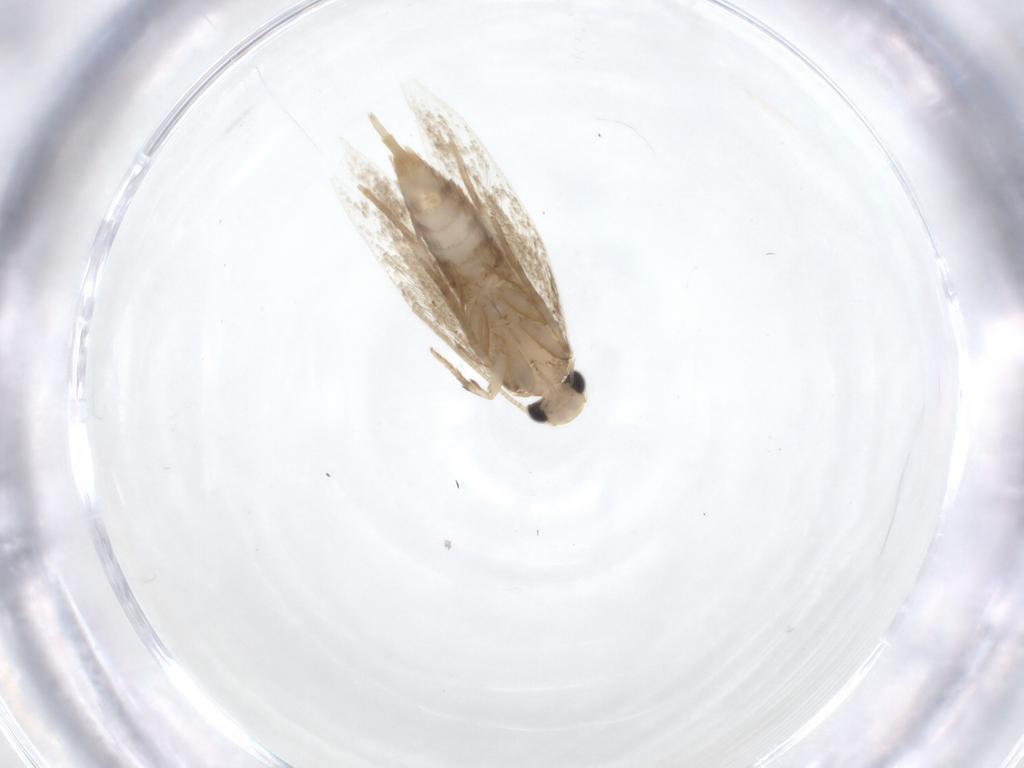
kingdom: Animalia
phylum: Arthropoda
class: Insecta
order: Lepidoptera
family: Tineidae
